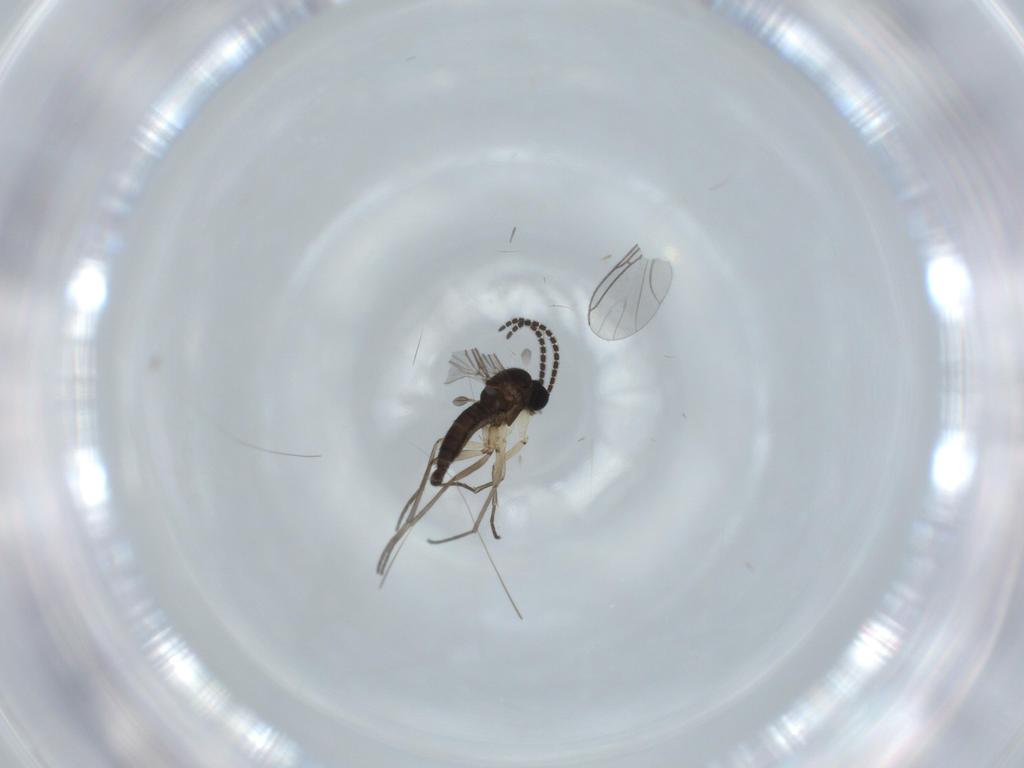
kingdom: Animalia
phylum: Arthropoda
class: Insecta
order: Diptera
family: Sciaridae
